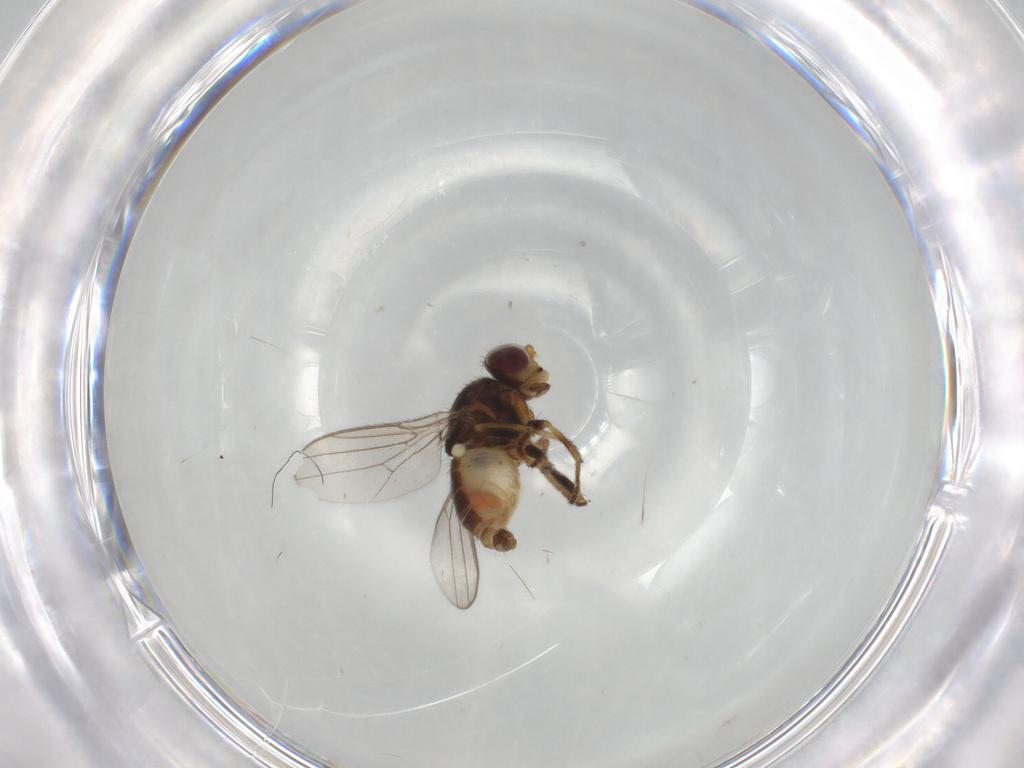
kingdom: Animalia
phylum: Arthropoda
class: Insecta
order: Diptera
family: Chloropidae
